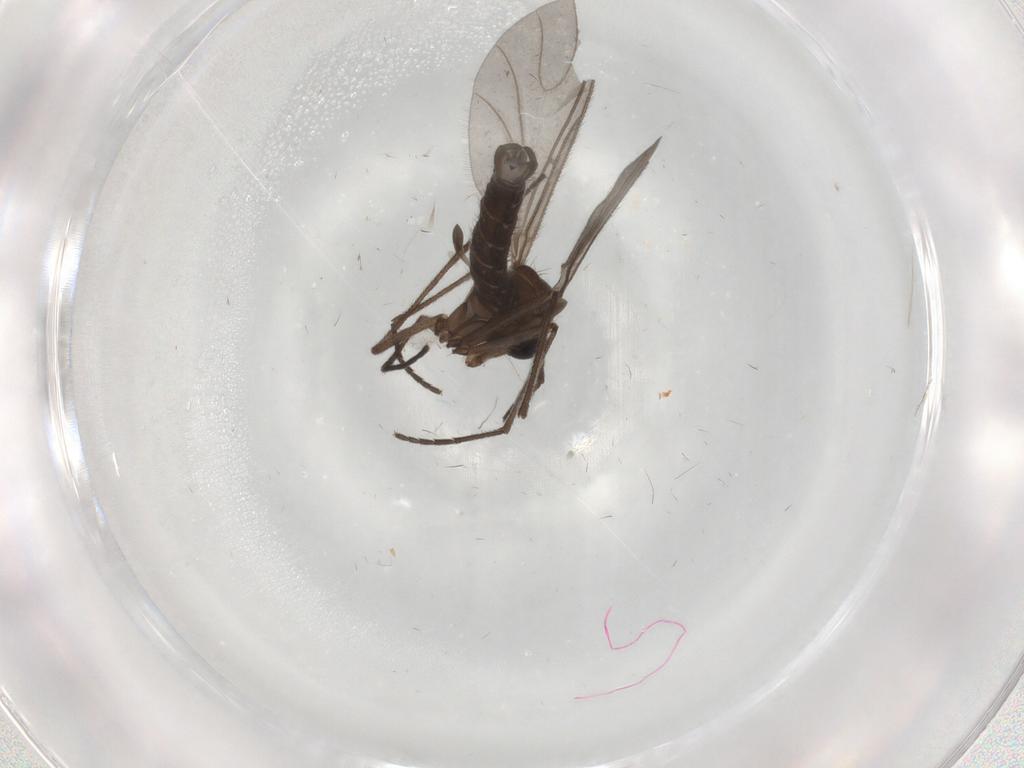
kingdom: Animalia
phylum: Arthropoda
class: Insecta
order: Diptera
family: Sciaridae
